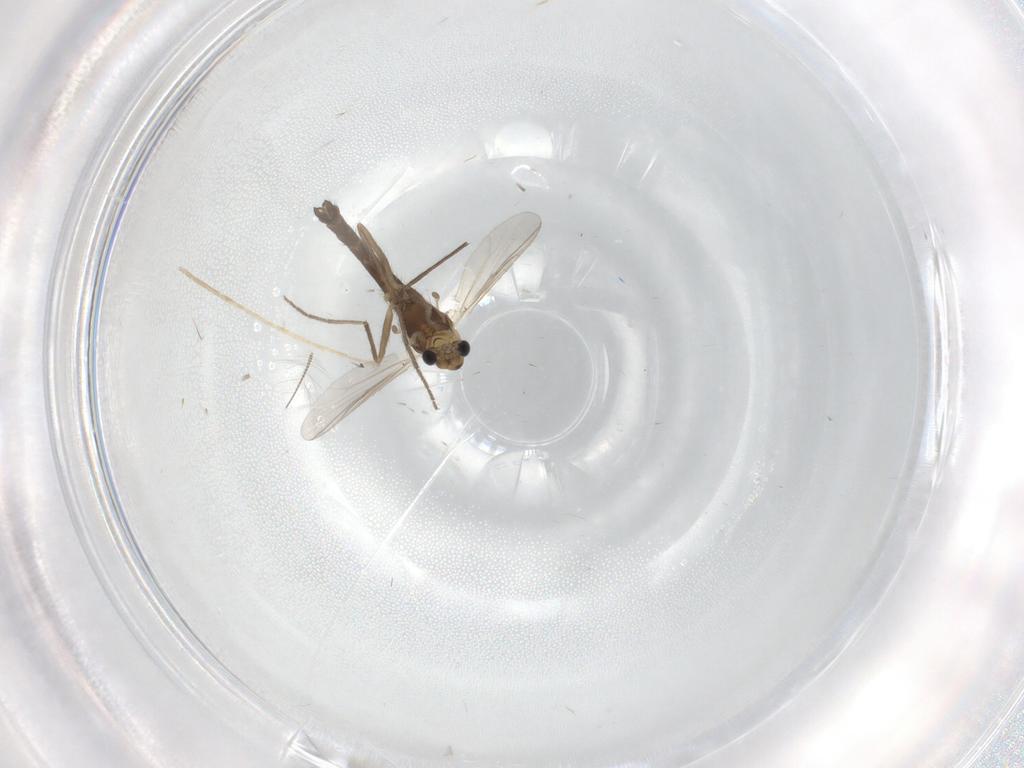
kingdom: Animalia
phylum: Arthropoda
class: Insecta
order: Diptera
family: Chironomidae
